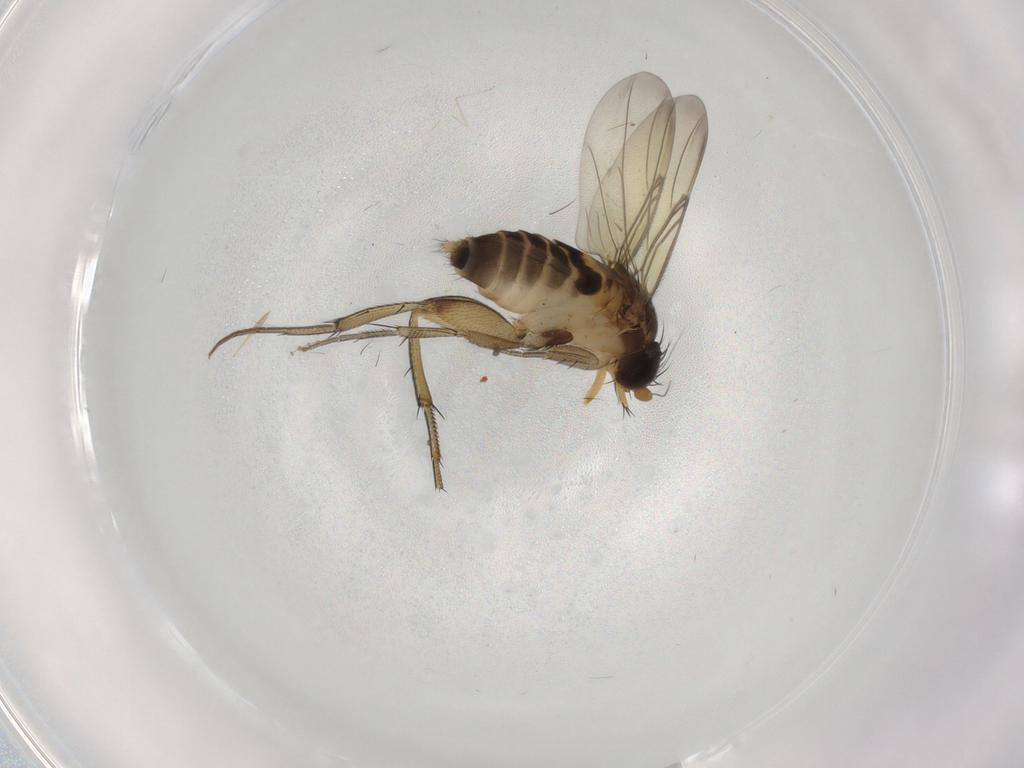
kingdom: Animalia
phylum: Arthropoda
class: Insecta
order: Diptera
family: Phoridae
